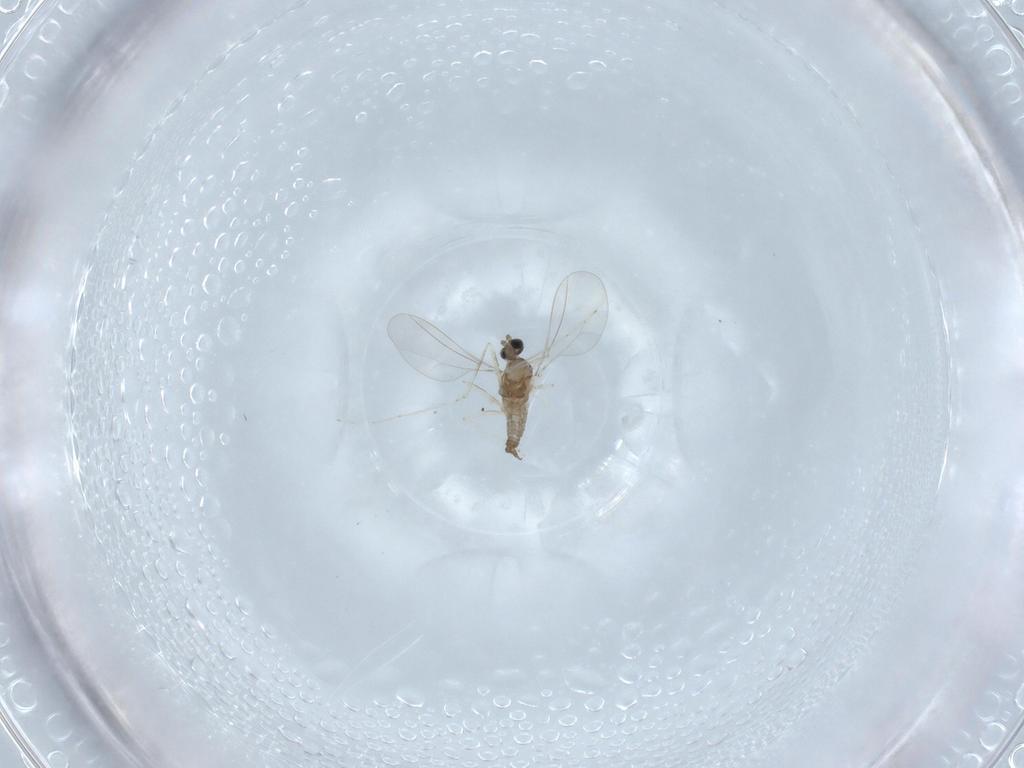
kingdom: Animalia
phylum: Arthropoda
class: Insecta
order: Diptera
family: Cecidomyiidae
